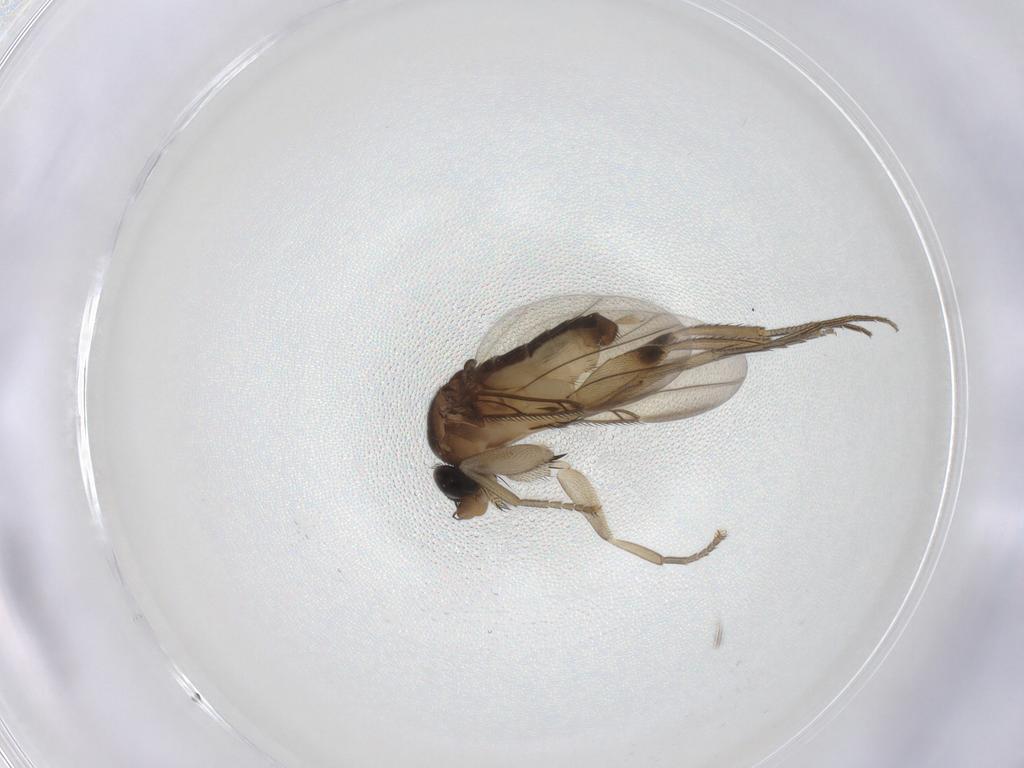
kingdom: Animalia
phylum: Arthropoda
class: Insecta
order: Diptera
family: Phoridae
